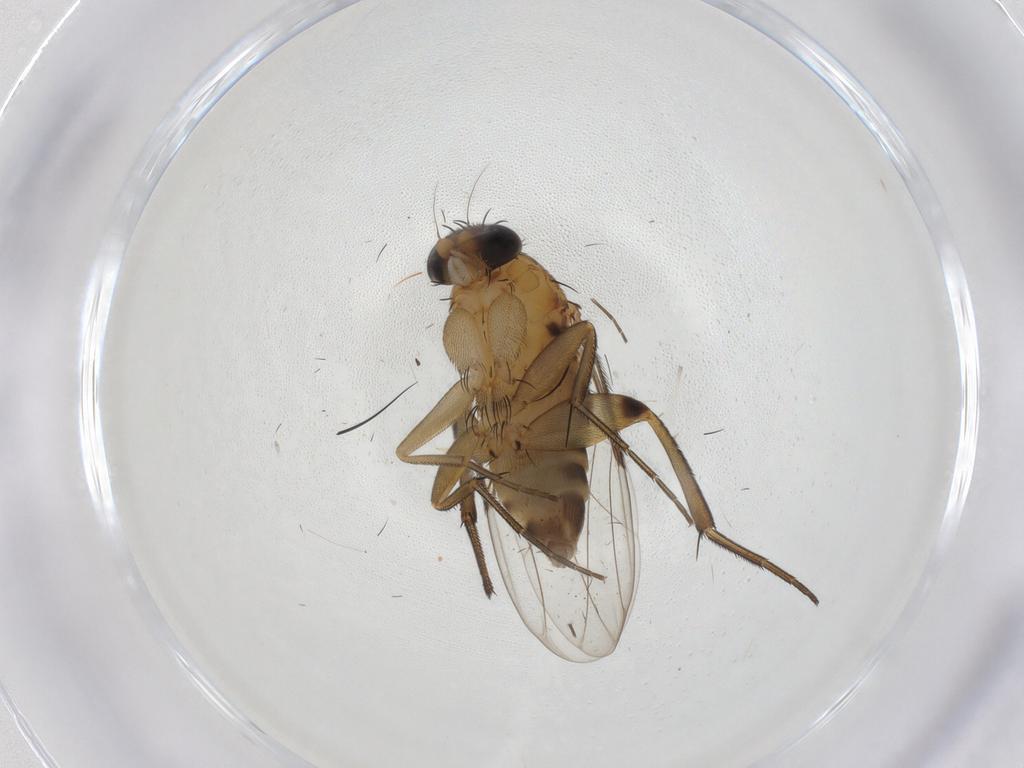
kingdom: Animalia
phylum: Arthropoda
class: Insecta
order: Diptera
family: Phoridae
